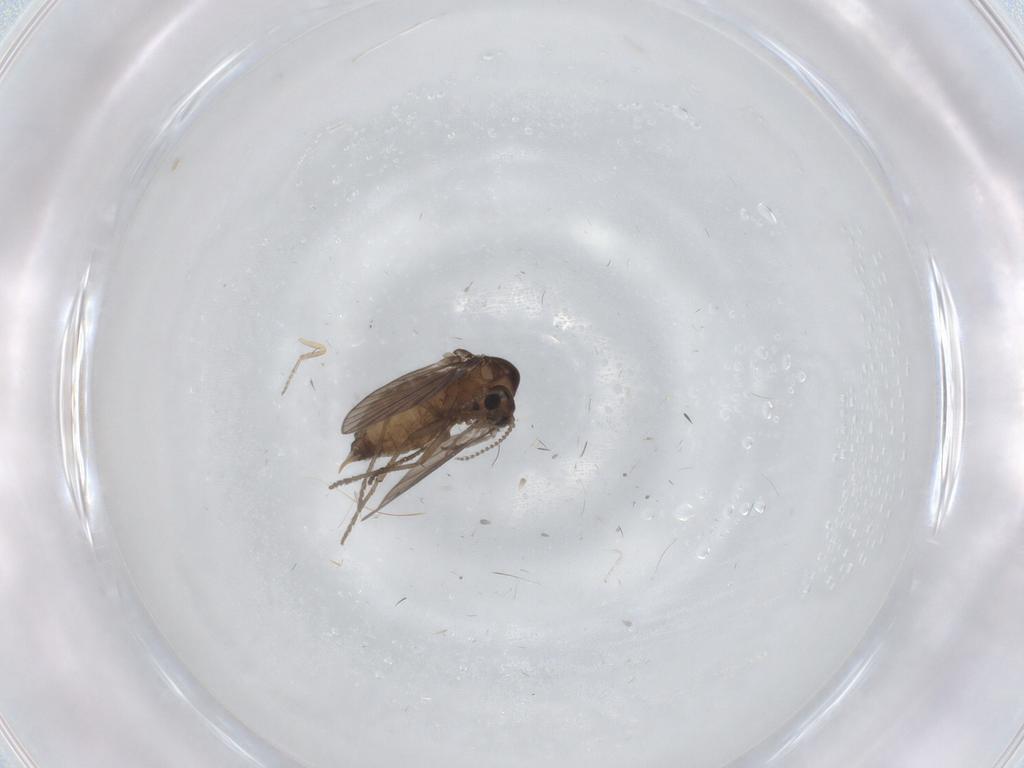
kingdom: Animalia
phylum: Arthropoda
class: Insecta
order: Diptera
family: Psychodidae
